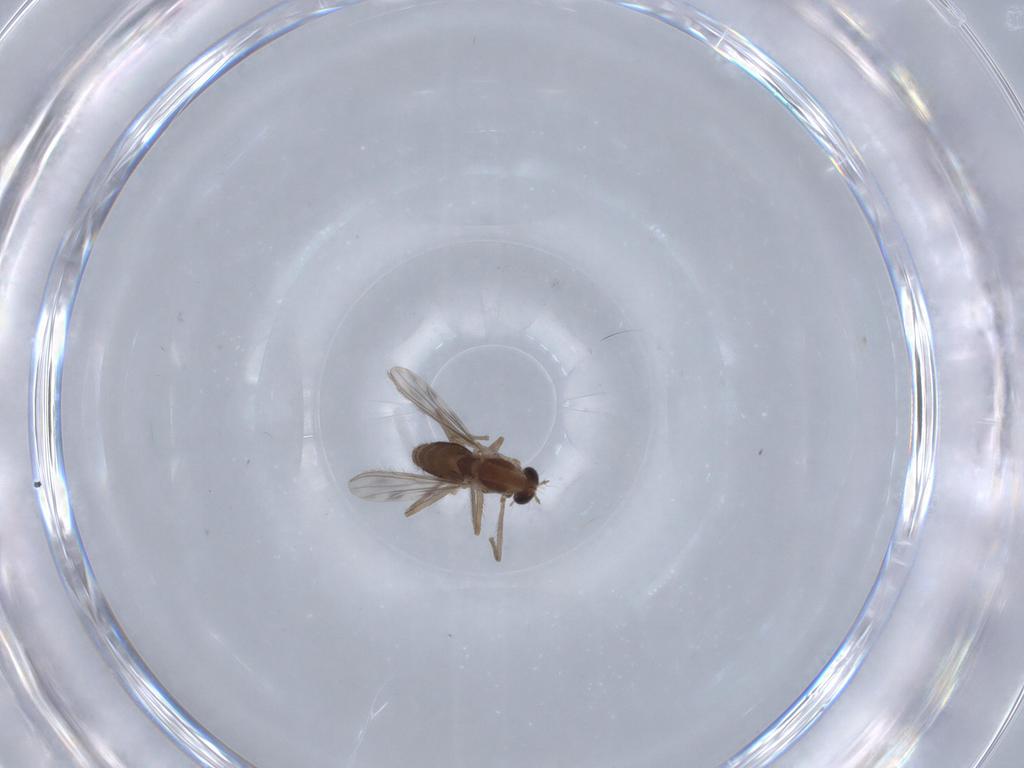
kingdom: Animalia
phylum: Arthropoda
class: Insecta
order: Diptera
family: Chironomidae
